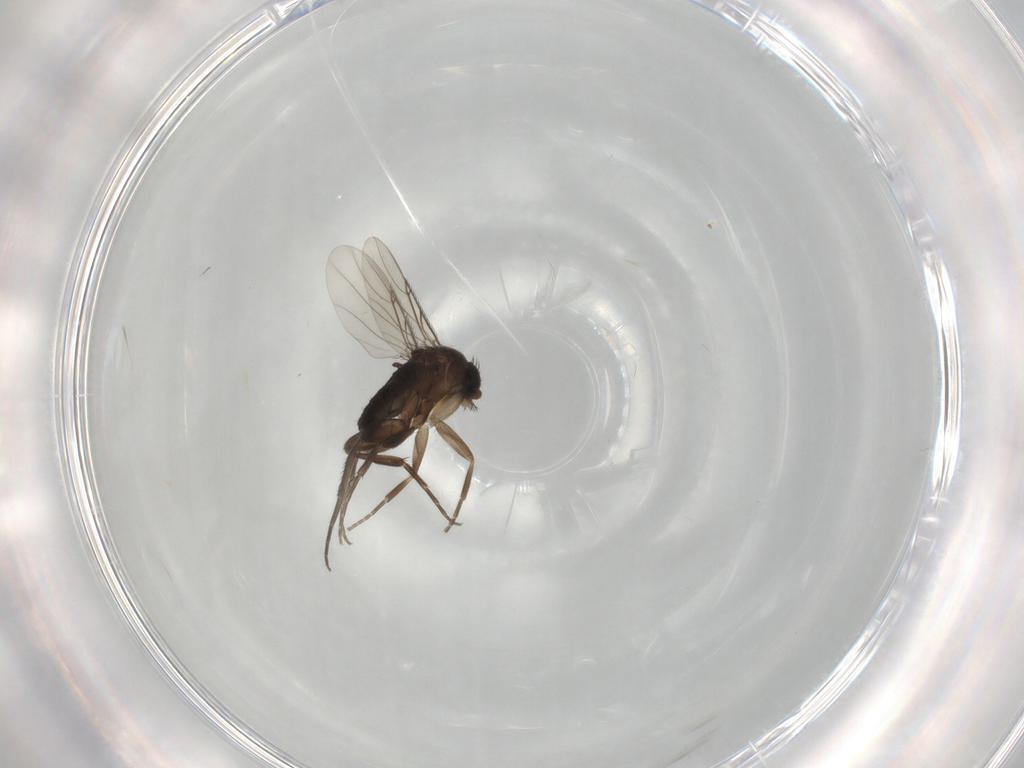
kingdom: Animalia
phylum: Arthropoda
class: Insecta
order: Diptera
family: Phoridae
